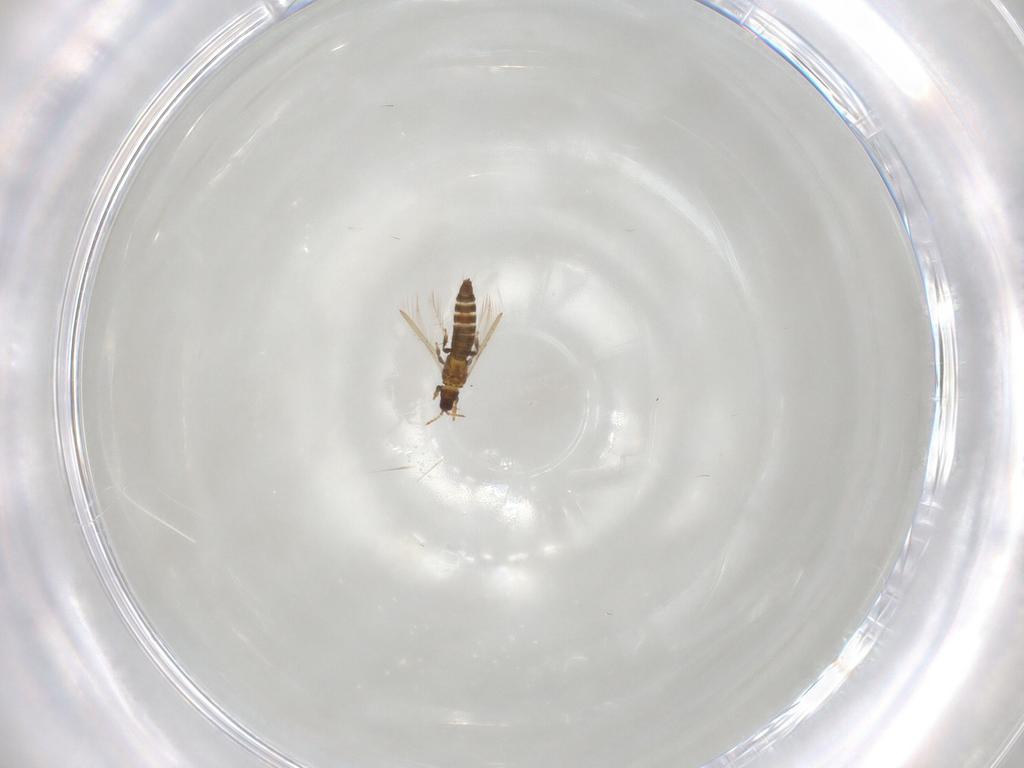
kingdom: Animalia
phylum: Arthropoda
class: Insecta
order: Thysanoptera
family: Thripidae
